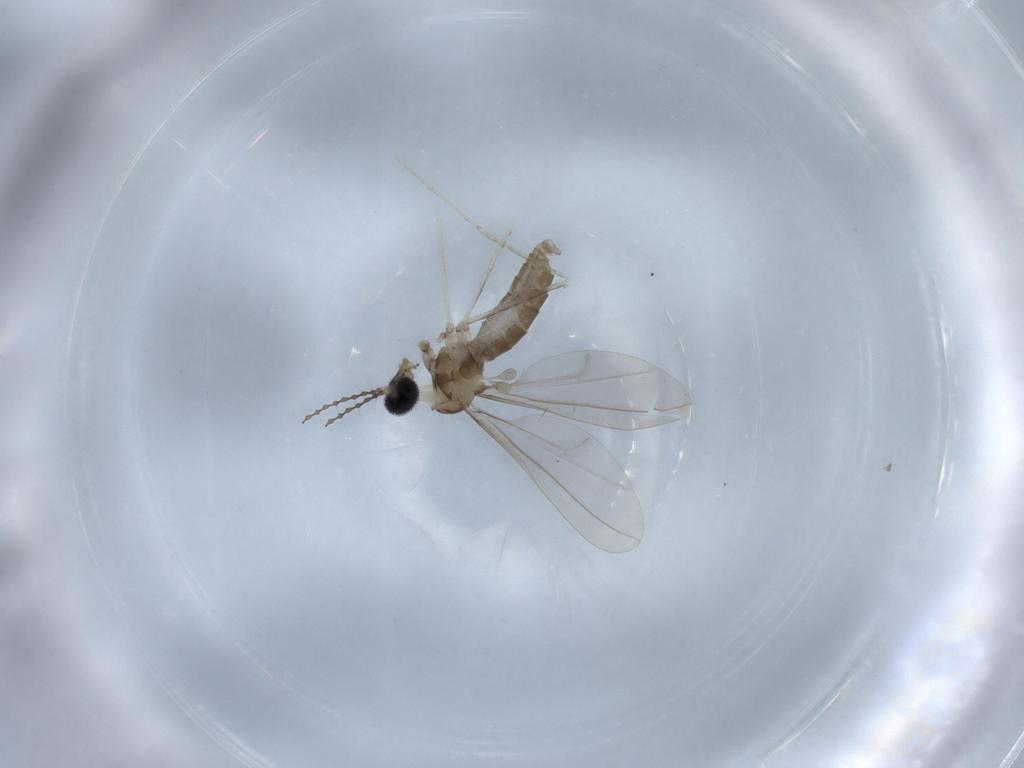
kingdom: Animalia
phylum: Arthropoda
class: Insecta
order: Diptera
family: Cecidomyiidae
